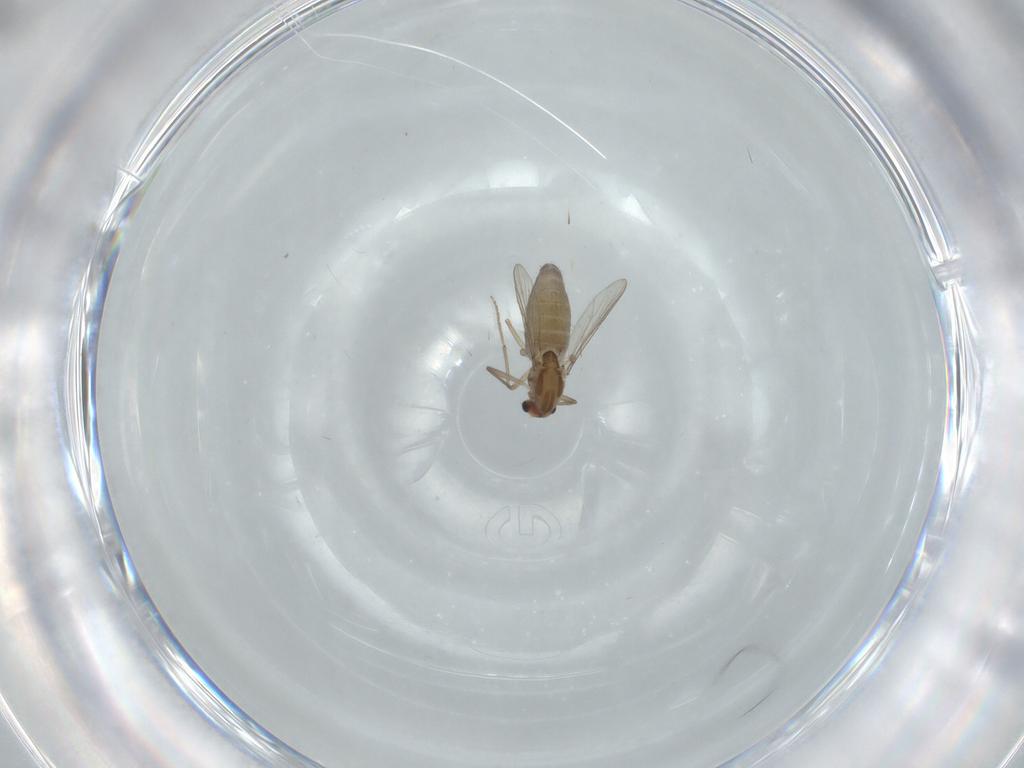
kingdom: Animalia
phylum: Arthropoda
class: Insecta
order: Diptera
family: Chironomidae
